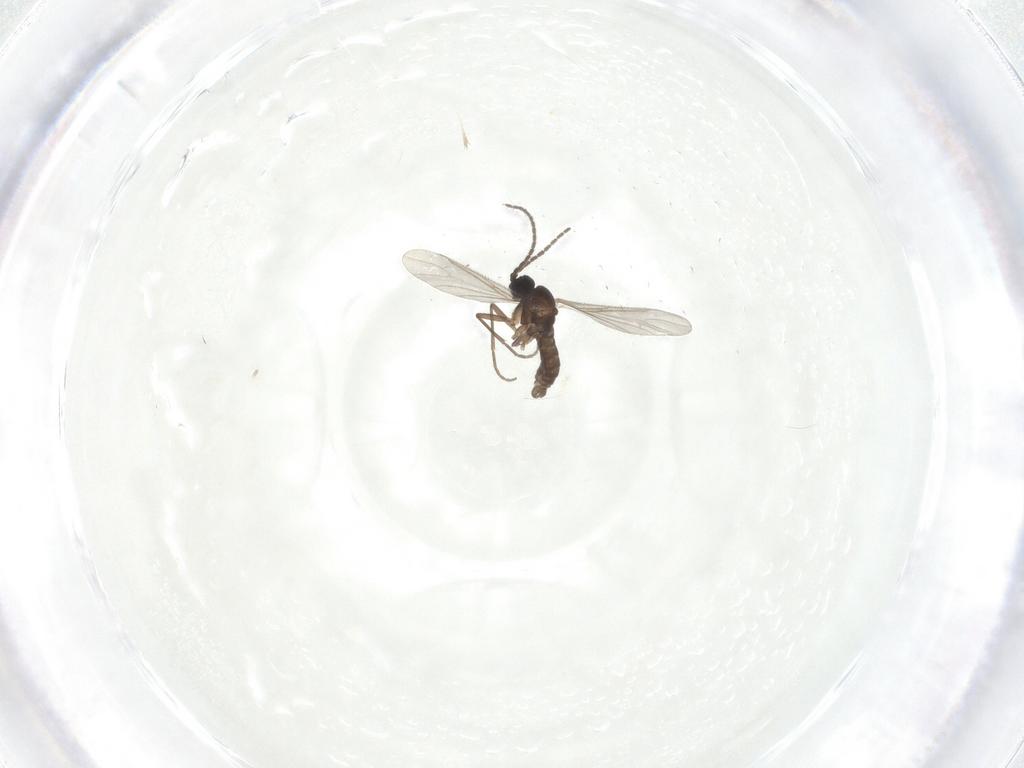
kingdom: Animalia
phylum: Arthropoda
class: Insecta
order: Diptera
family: Sciaridae
